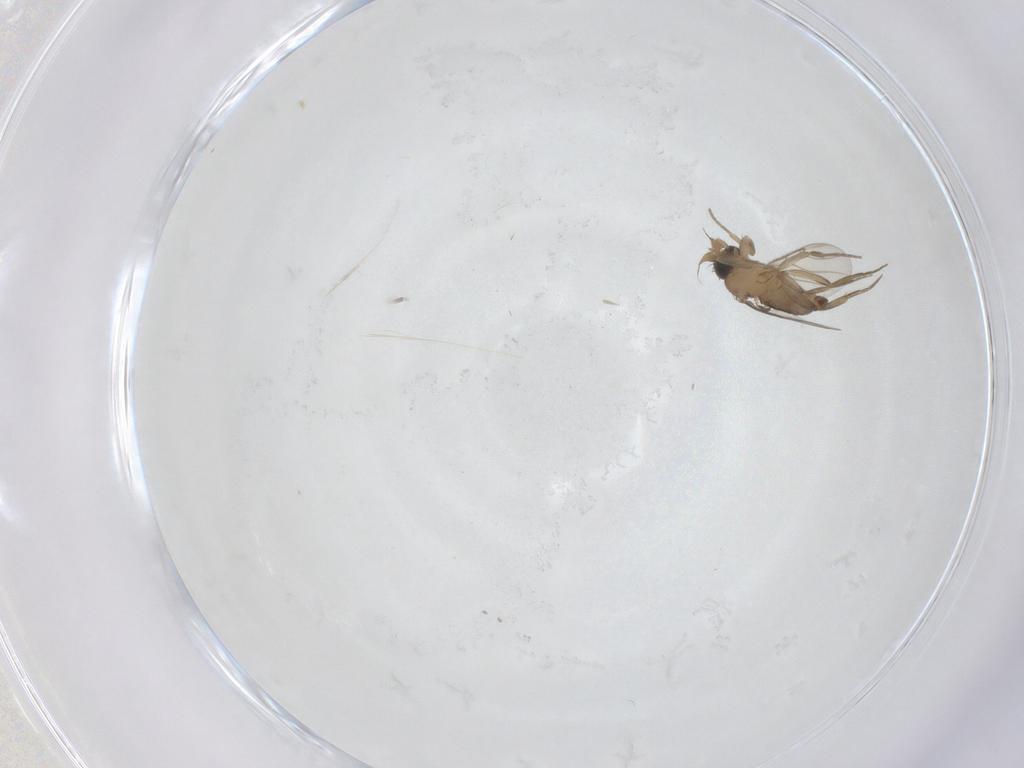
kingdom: Animalia
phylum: Arthropoda
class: Insecta
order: Diptera
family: Phoridae
